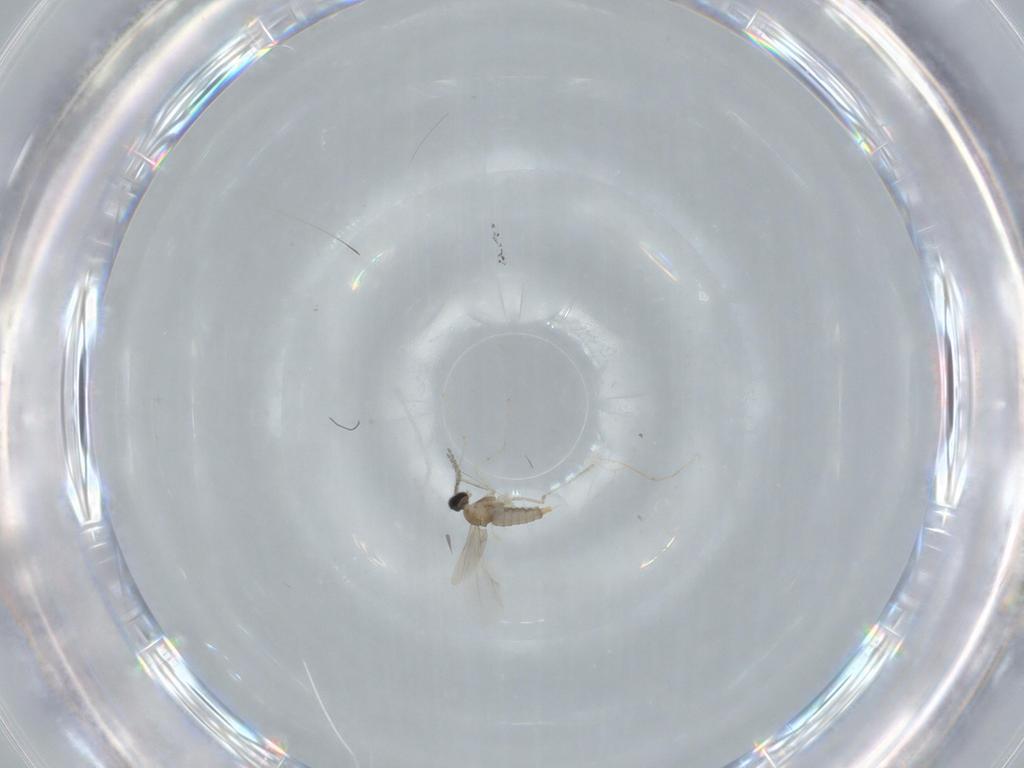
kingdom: Animalia
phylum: Arthropoda
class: Insecta
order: Diptera
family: Cecidomyiidae
